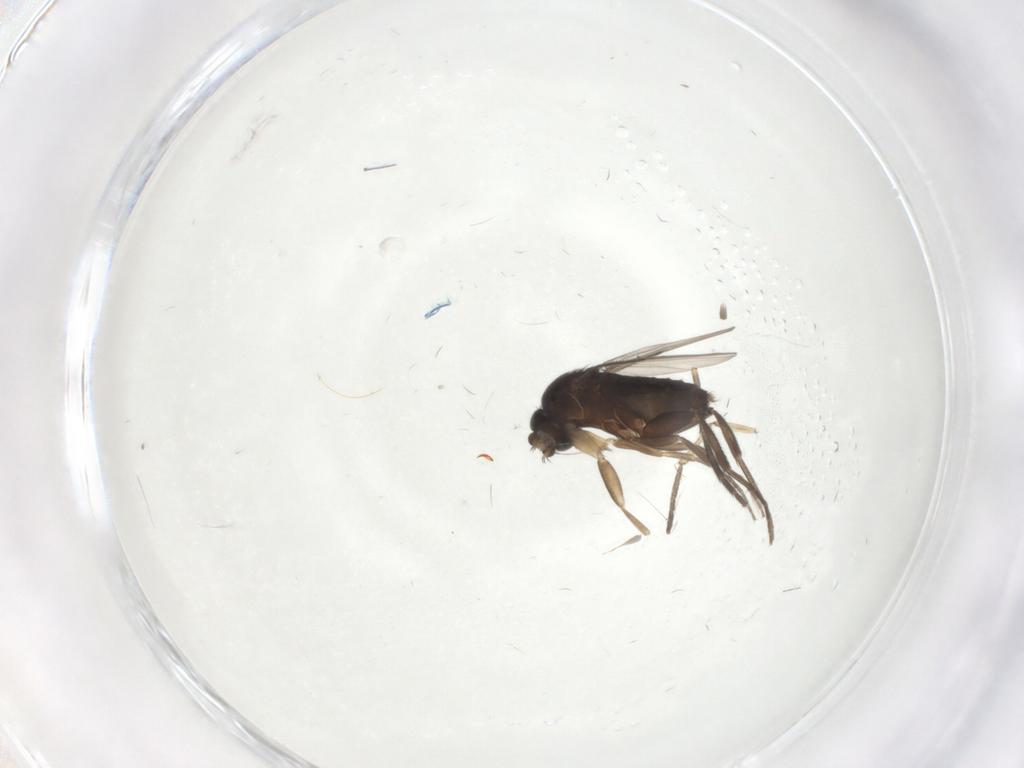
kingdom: Animalia
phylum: Arthropoda
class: Insecta
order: Diptera
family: Phoridae
